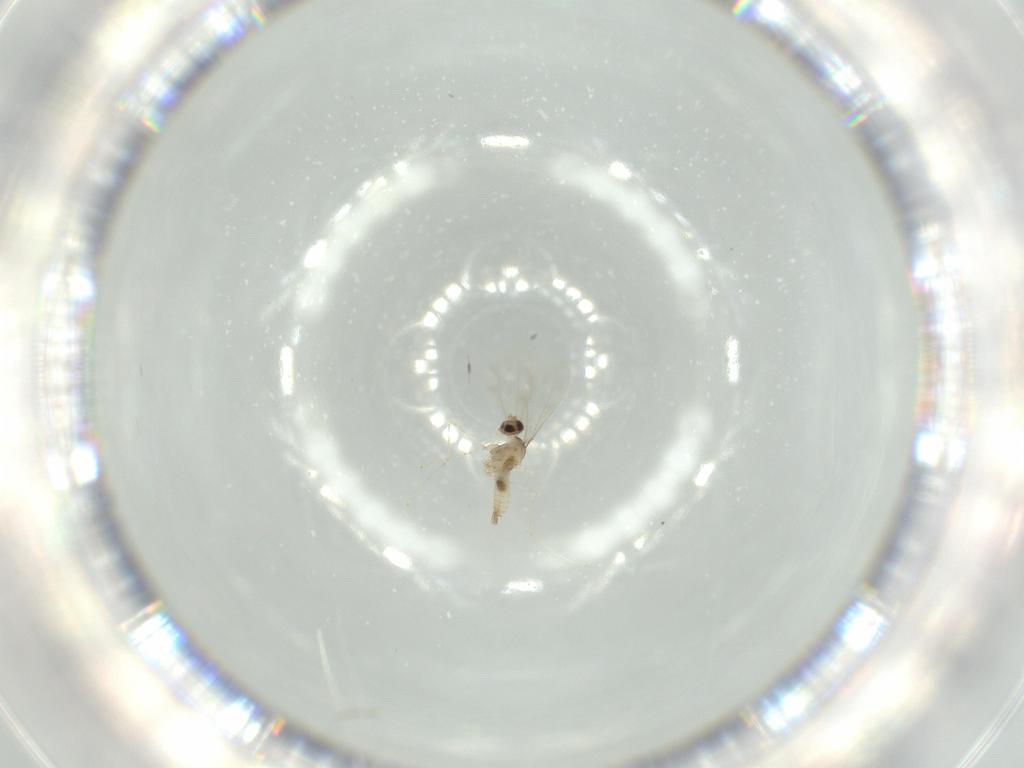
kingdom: Animalia
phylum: Arthropoda
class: Insecta
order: Diptera
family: Cecidomyiidae
